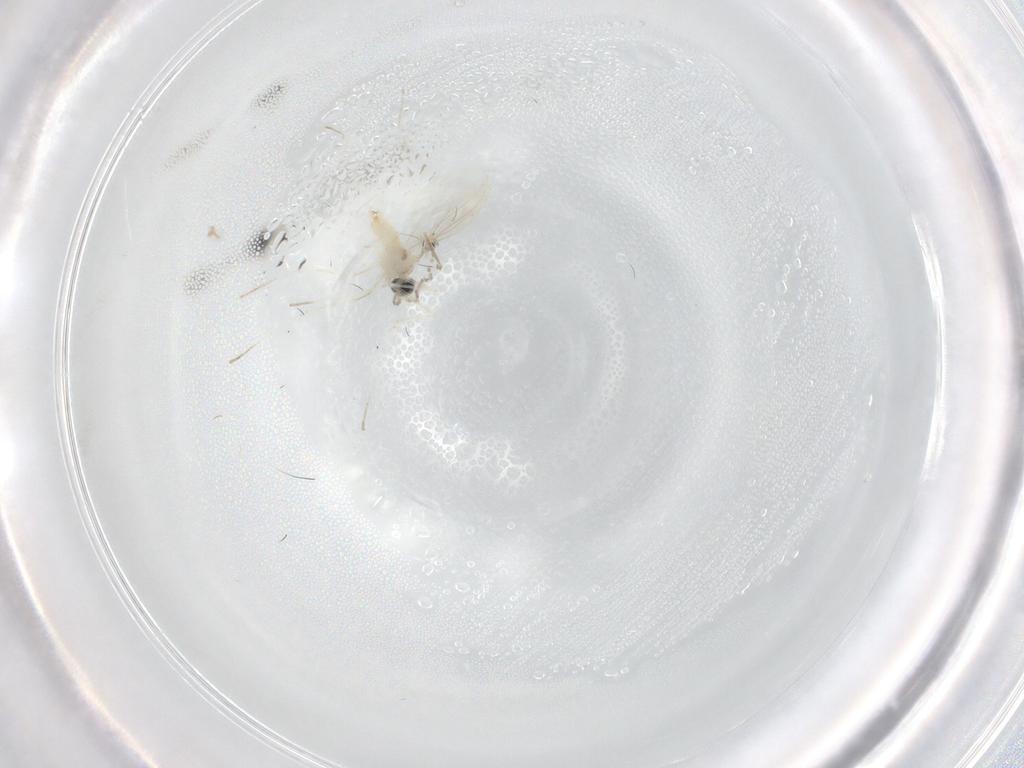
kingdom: Animalia
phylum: Arthropoda
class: Insecta
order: Diptera
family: Cecidomyiidae
